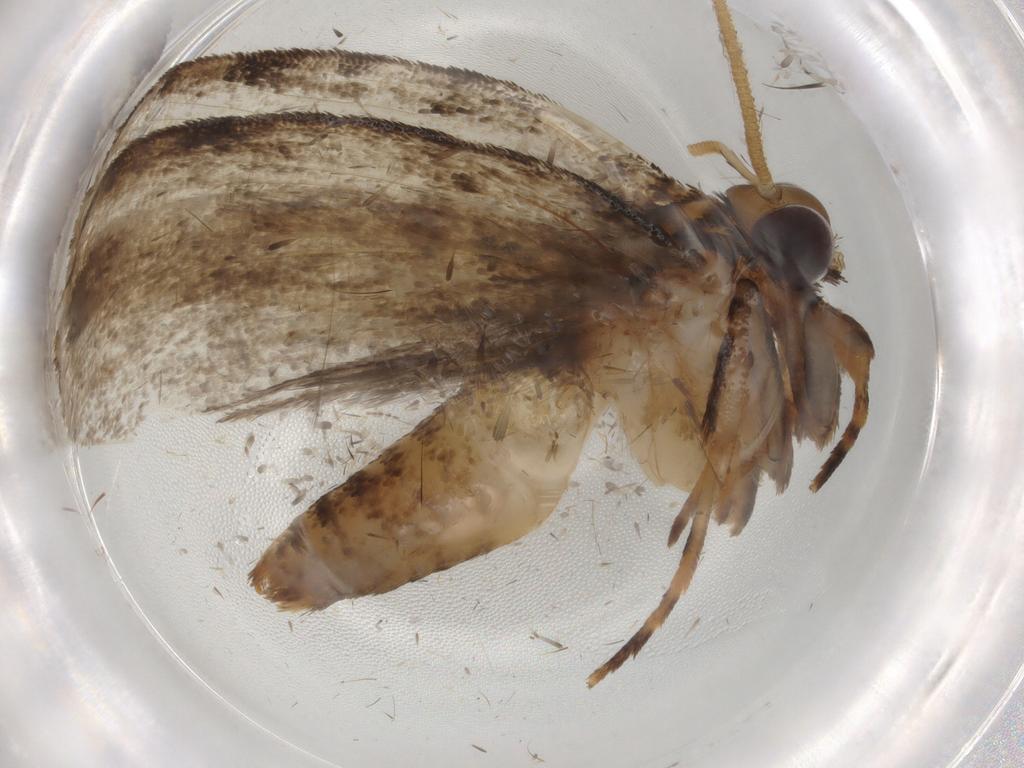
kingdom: Animalia
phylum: Arthropoda
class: Insecta
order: Lepidoptera
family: Tineidae
